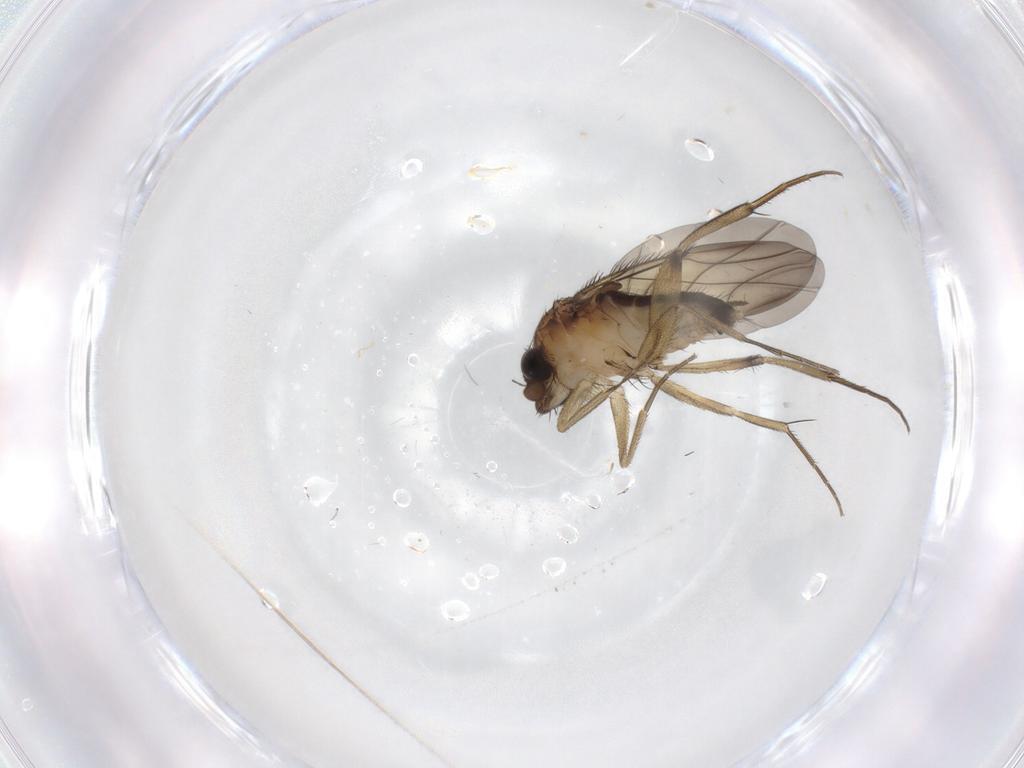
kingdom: Animalia
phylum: Arthropoda
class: Insecta
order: Diptera
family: Phoridae
